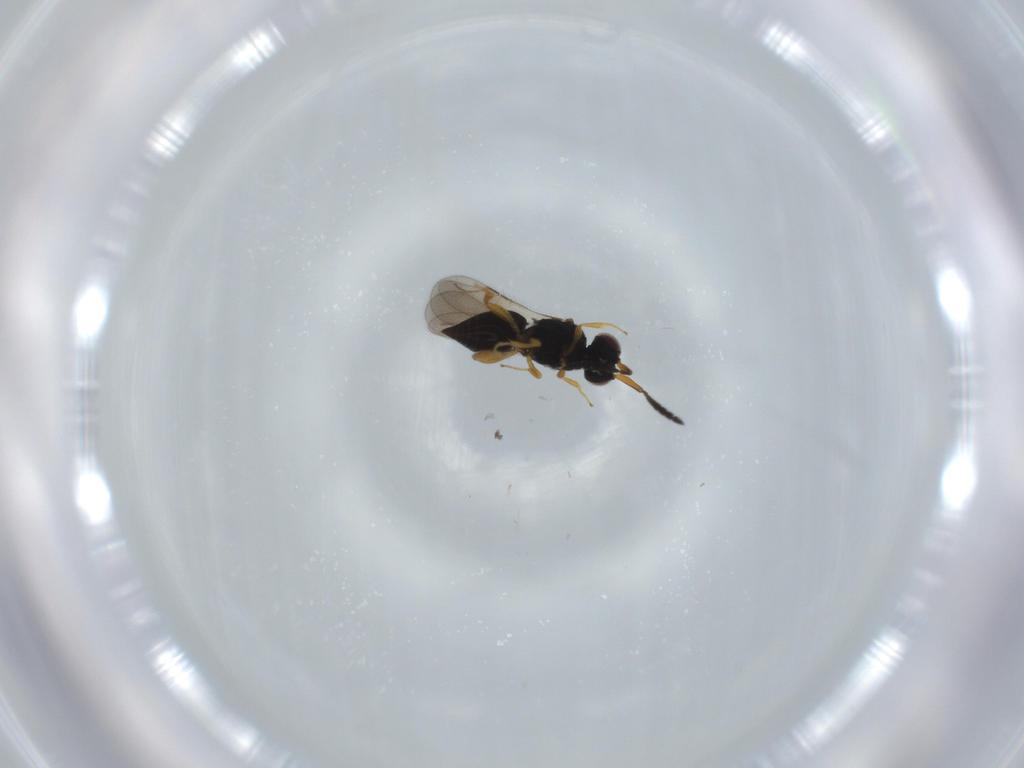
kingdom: Animalia
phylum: Arthropoda
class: Insecta
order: Hymenoptera
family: Ceraphronidae
